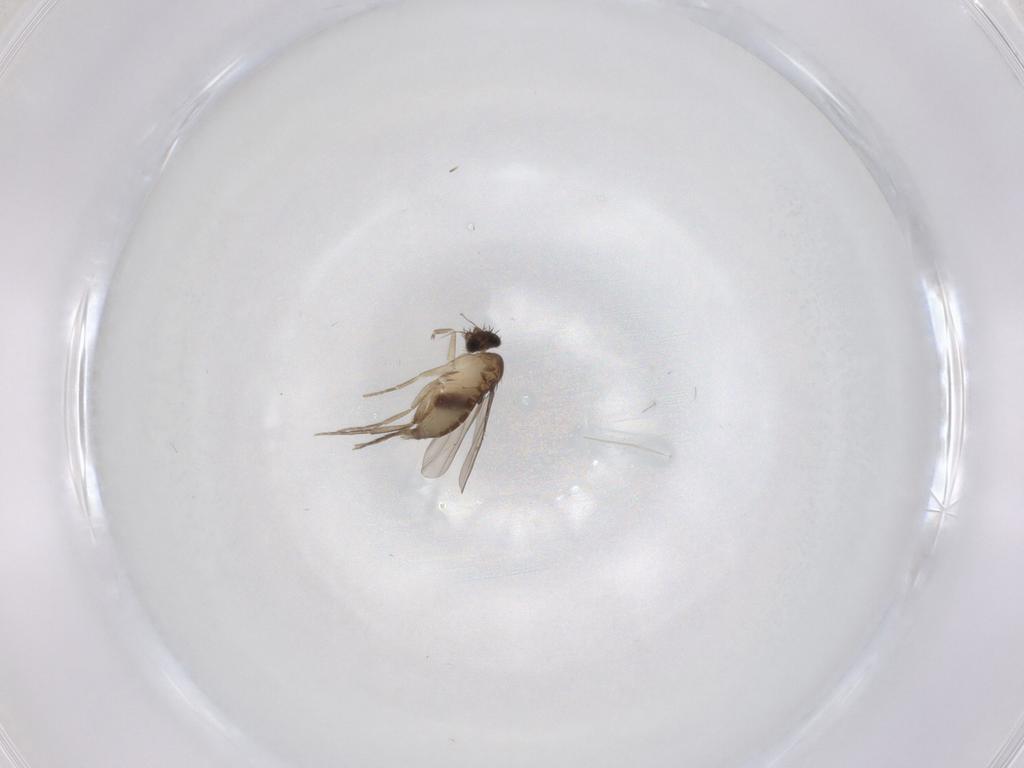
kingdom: Animalia
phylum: Arthropoda
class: Insecta
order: Diptera
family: Phoridae
